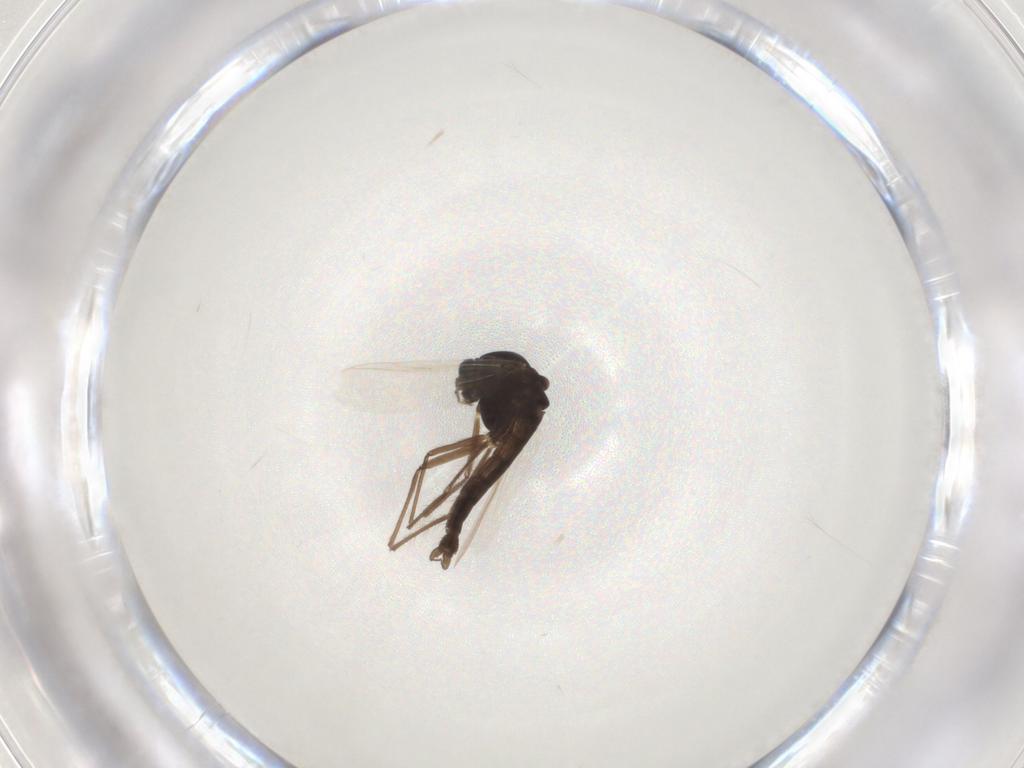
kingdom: Animalia
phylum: Arthropoda
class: Insecta
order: Diptera
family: Chironomidae
